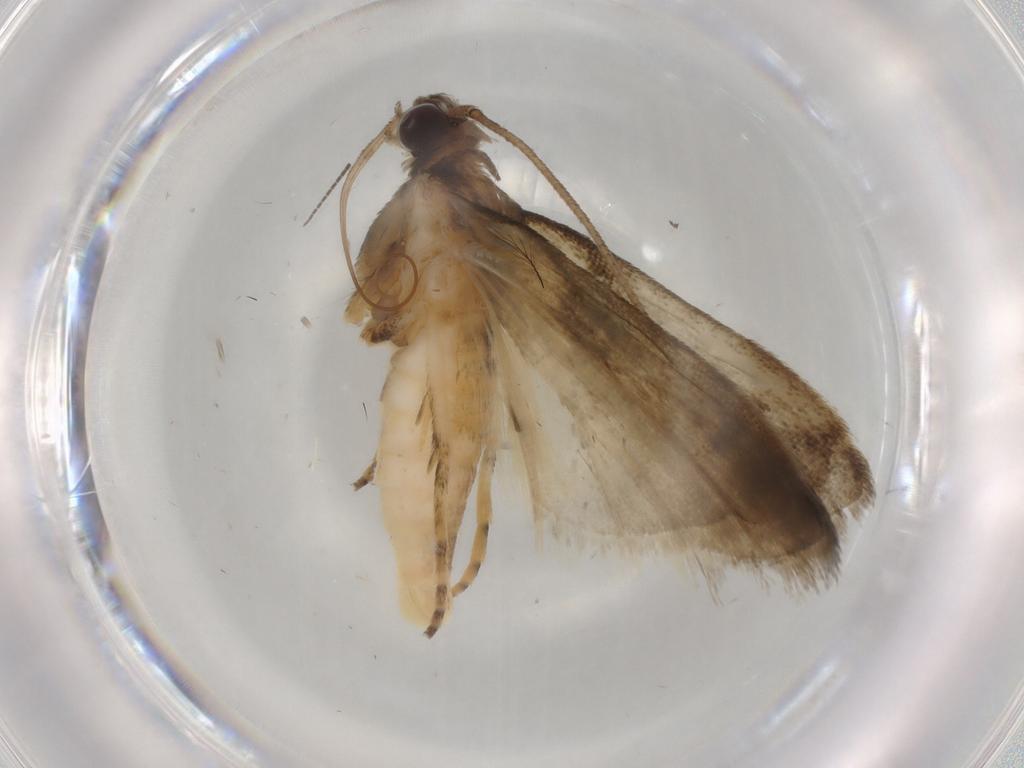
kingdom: Animalia
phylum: Arthropoda
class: Insecta
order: Lepidoptera
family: Noctuidae
